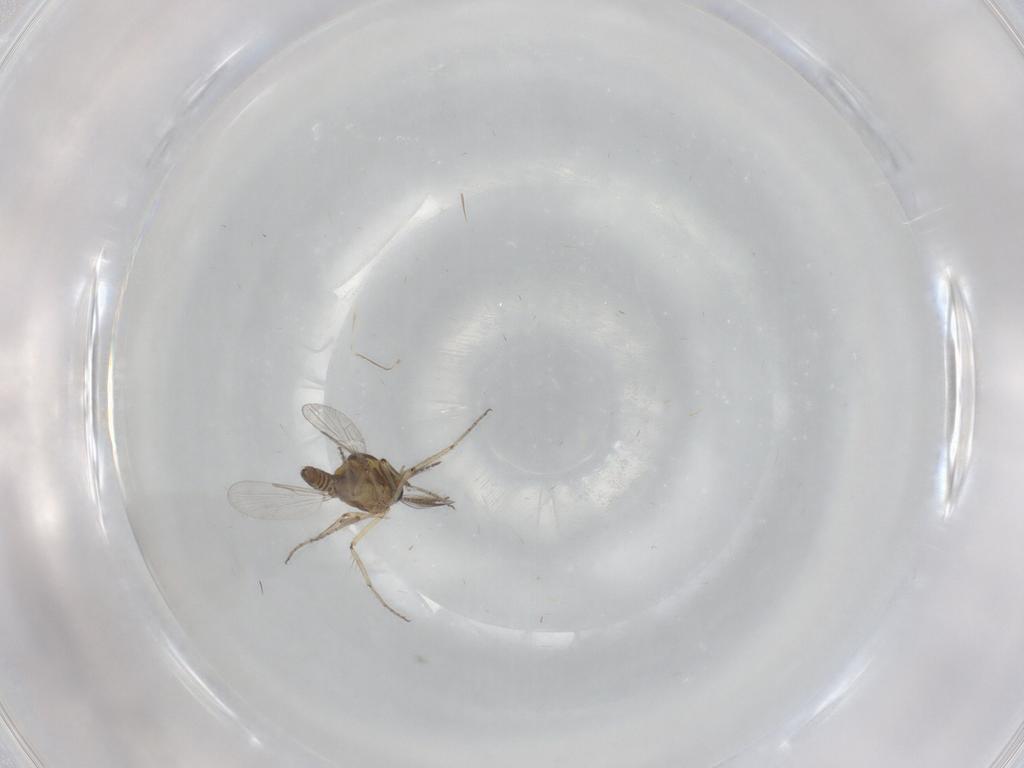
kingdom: Animalia
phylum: Arthropoda
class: Insecta
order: Diptera
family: Ceratopogonidae
